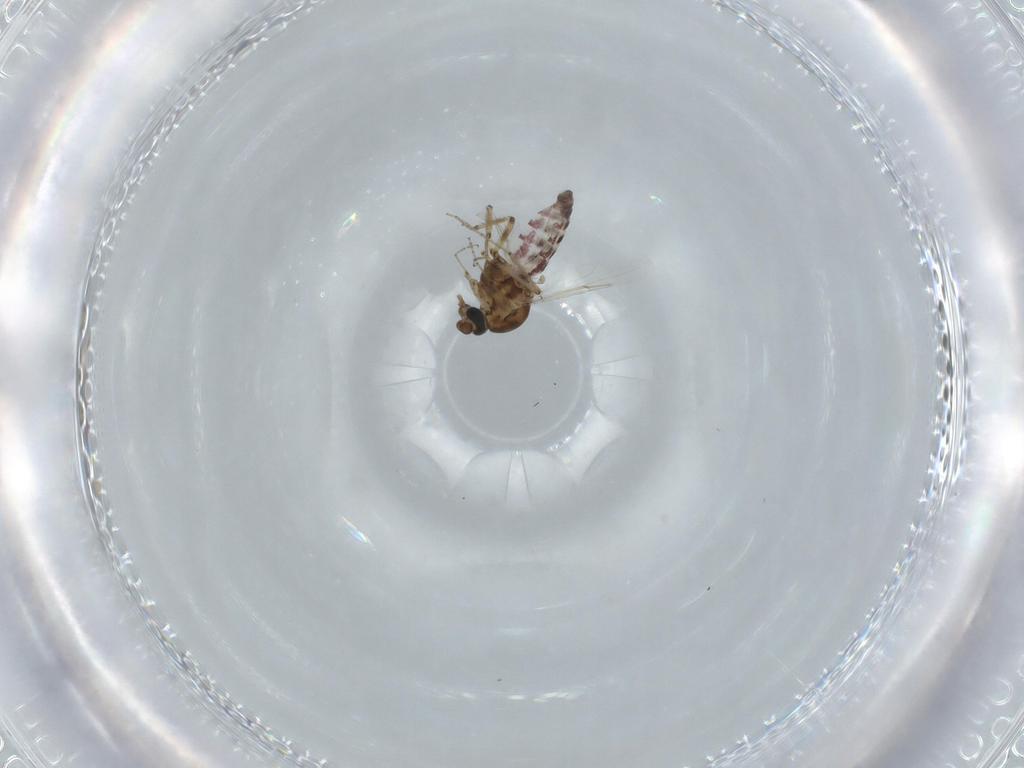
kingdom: Animalia
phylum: Arthropoda
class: Insecta
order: Diptera
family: Ceratopogonidae
